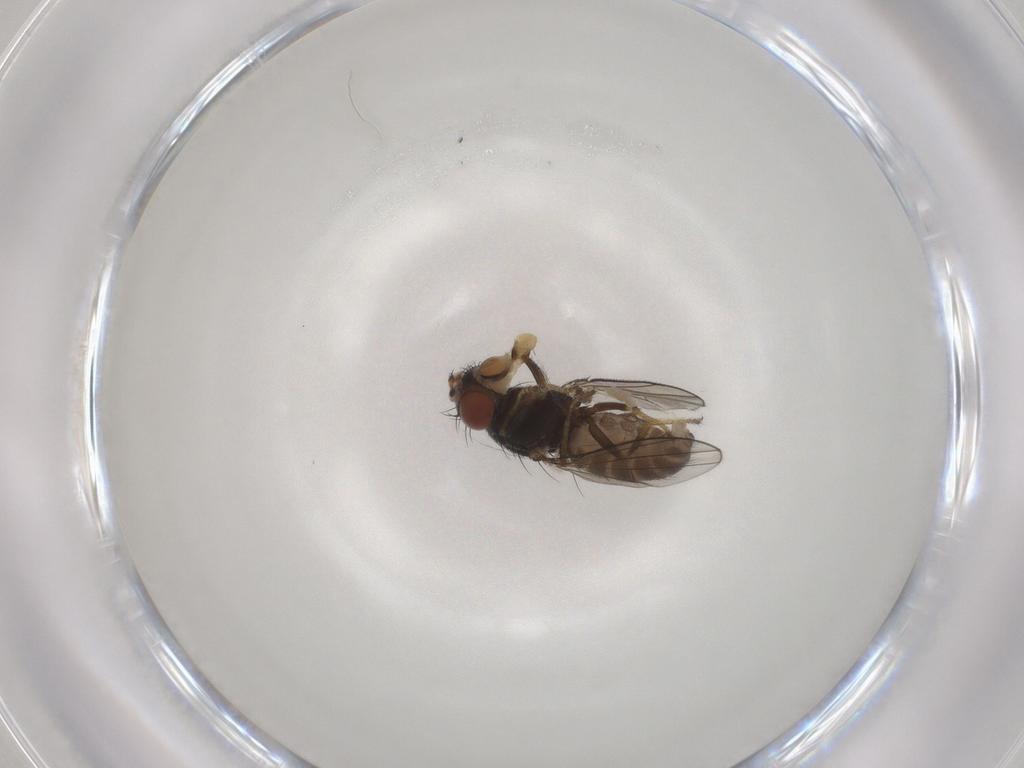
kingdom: Animalia
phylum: Arthropoda
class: Insecta
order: Diptera
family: Ephydridae
